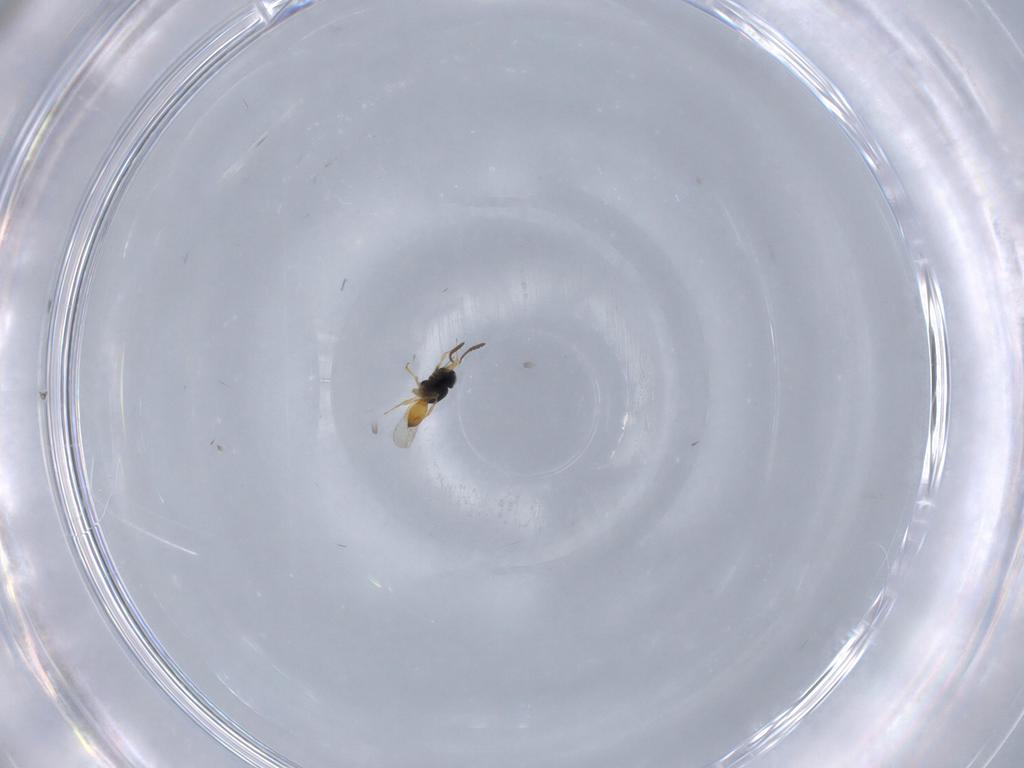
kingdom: Animalia
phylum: Arthropoda
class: Insecta
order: Hymenoptera
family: Scelionidae
